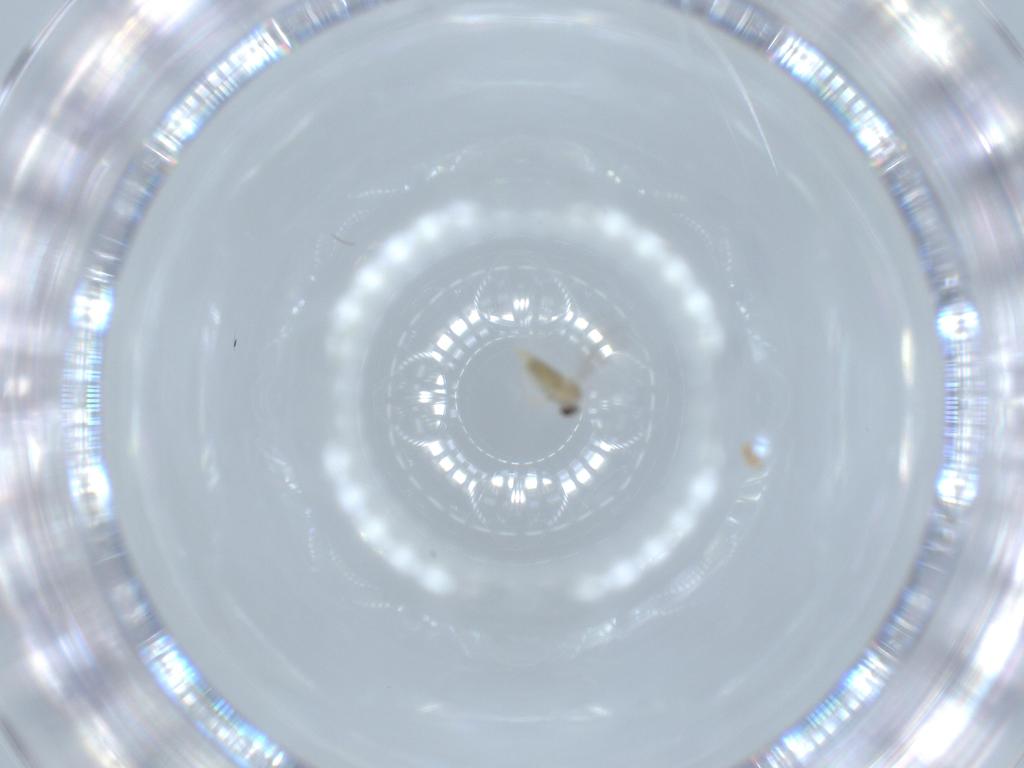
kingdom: Animalia
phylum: Arthropoda
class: Insecta
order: Diptera
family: Cecidomyiidae
